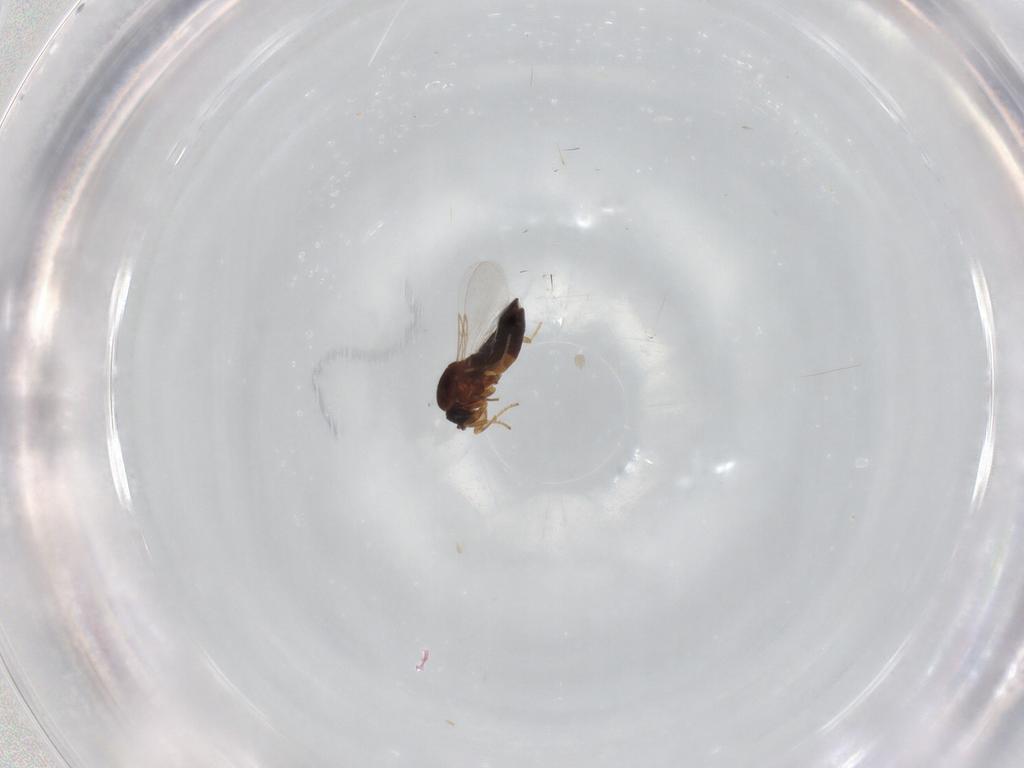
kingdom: Animalia
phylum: Arthropoda
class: Insecta
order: Diptera
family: Scatopsidae
